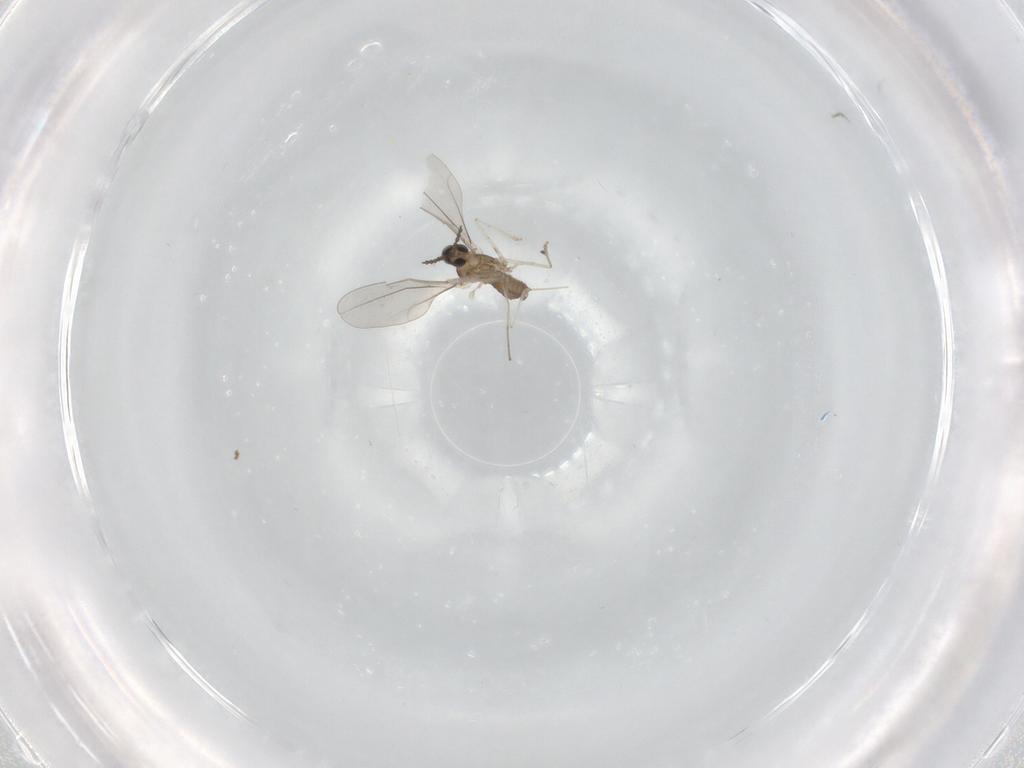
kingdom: Animalia
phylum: Arthropoda
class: Insecta
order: Diptera
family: Cecidomyiidae
